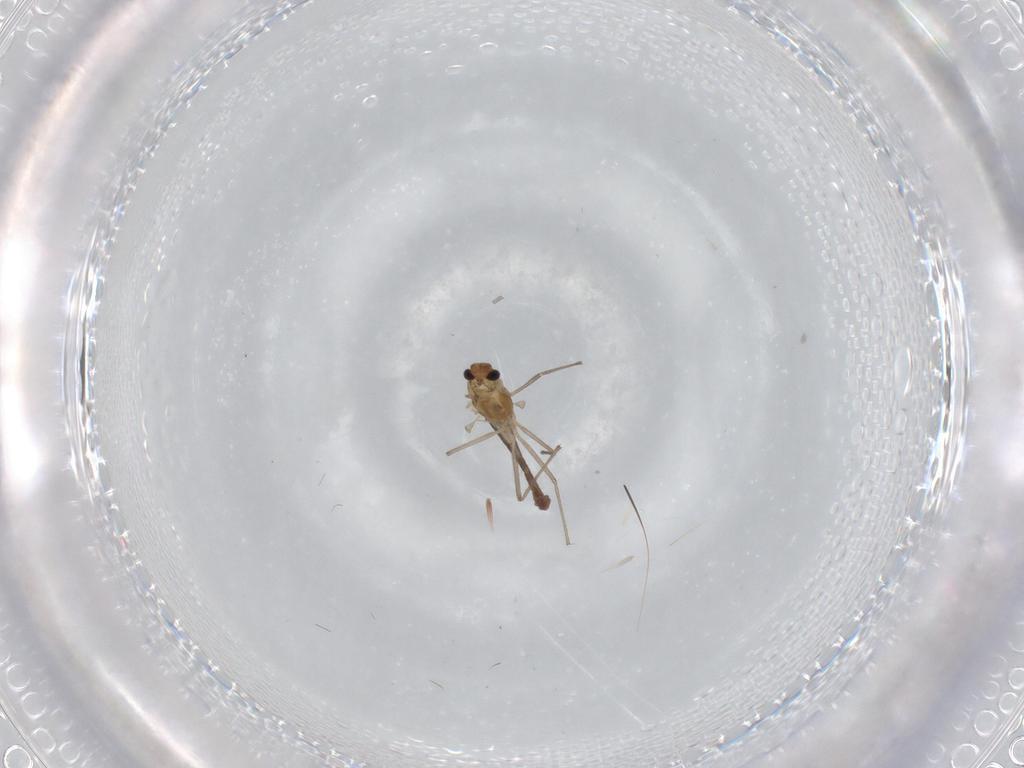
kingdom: Animalia
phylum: Arthropoda
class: Insecta
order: Diptera
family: Chironomidae
